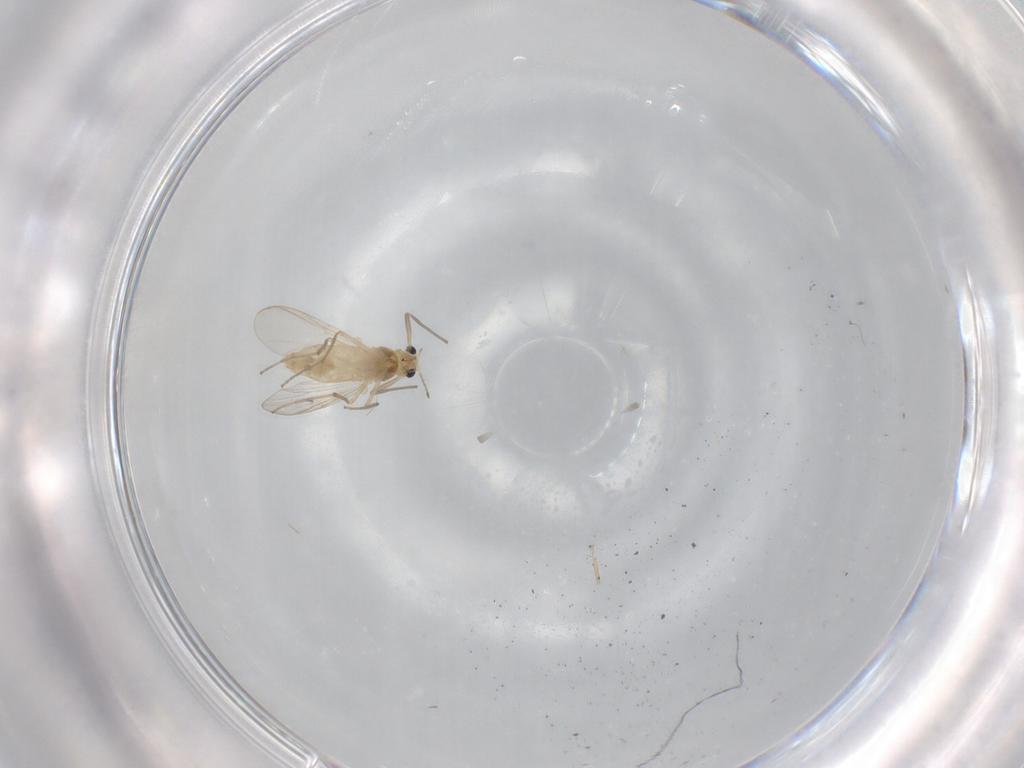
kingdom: Animalia
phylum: Arthropoda
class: Insecta
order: Diptera
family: Chironomidae
